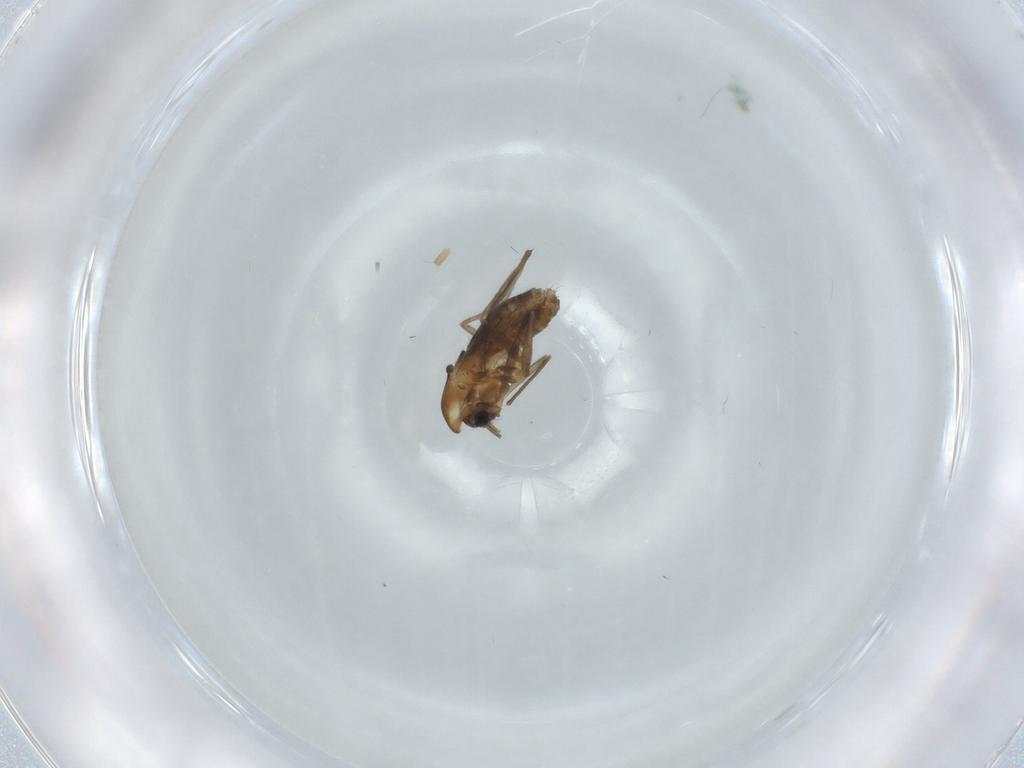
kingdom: Animalia
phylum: Arthropoda
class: Insecta
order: Diptera
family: Chironomidae
